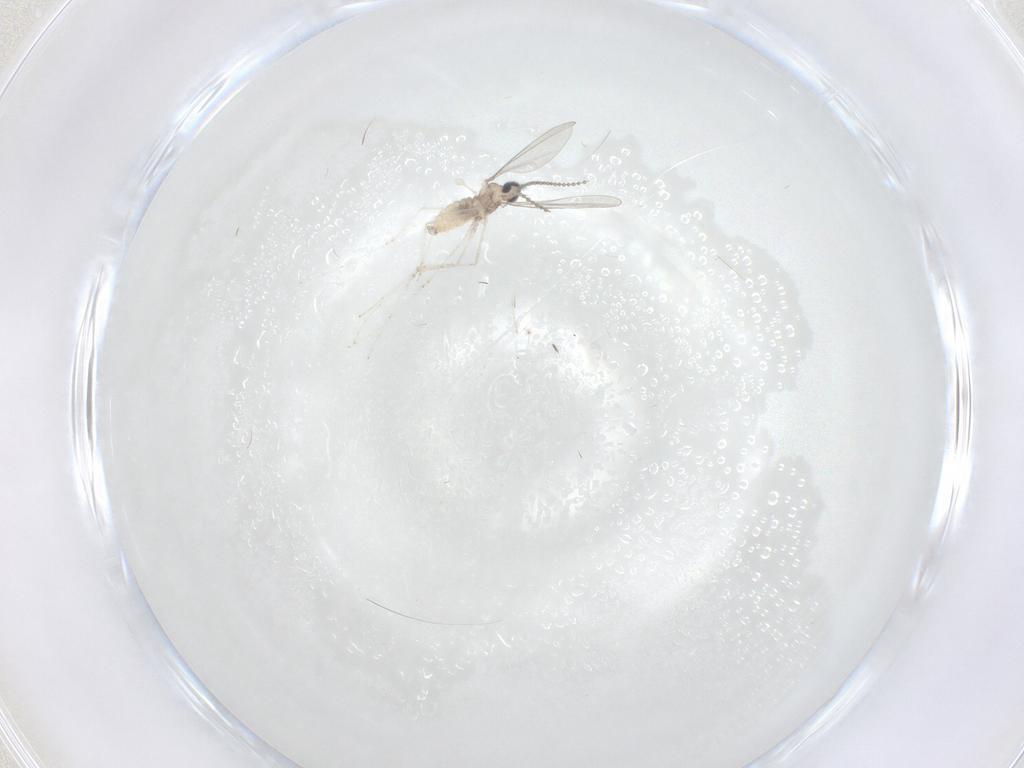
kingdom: Animalia
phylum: Arthropoda
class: Insecta
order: Diptera
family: Cecidomyiidae
